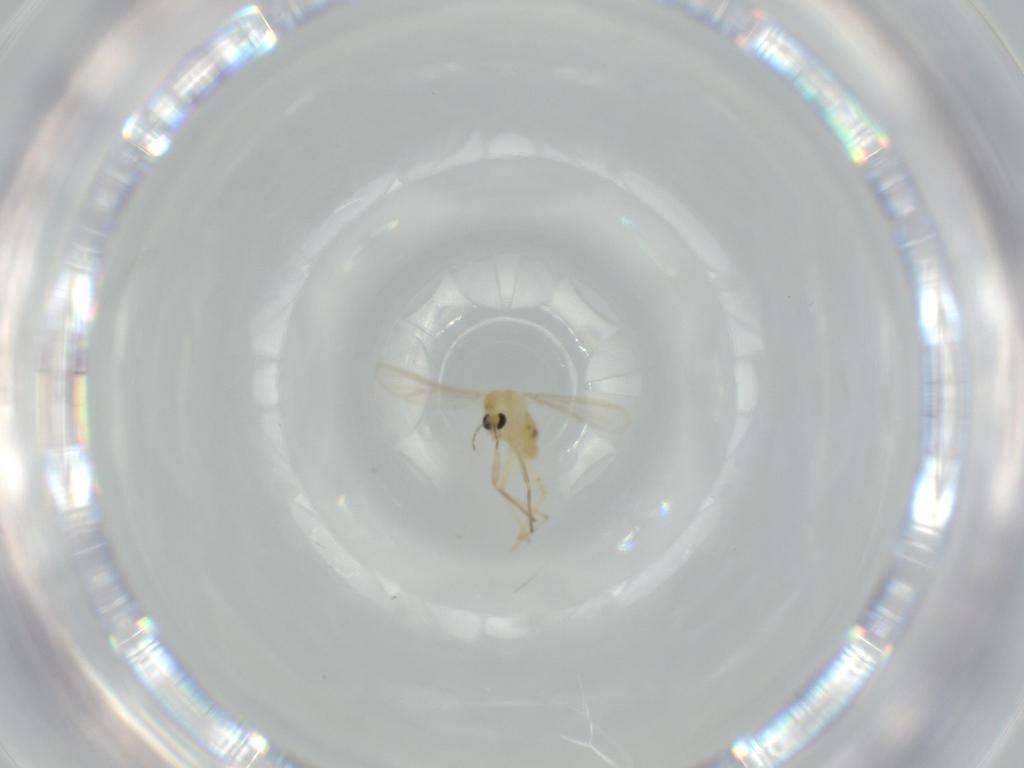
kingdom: Animalia
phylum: Arthropoda
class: Insecta
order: Diptera
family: Chironomidae
